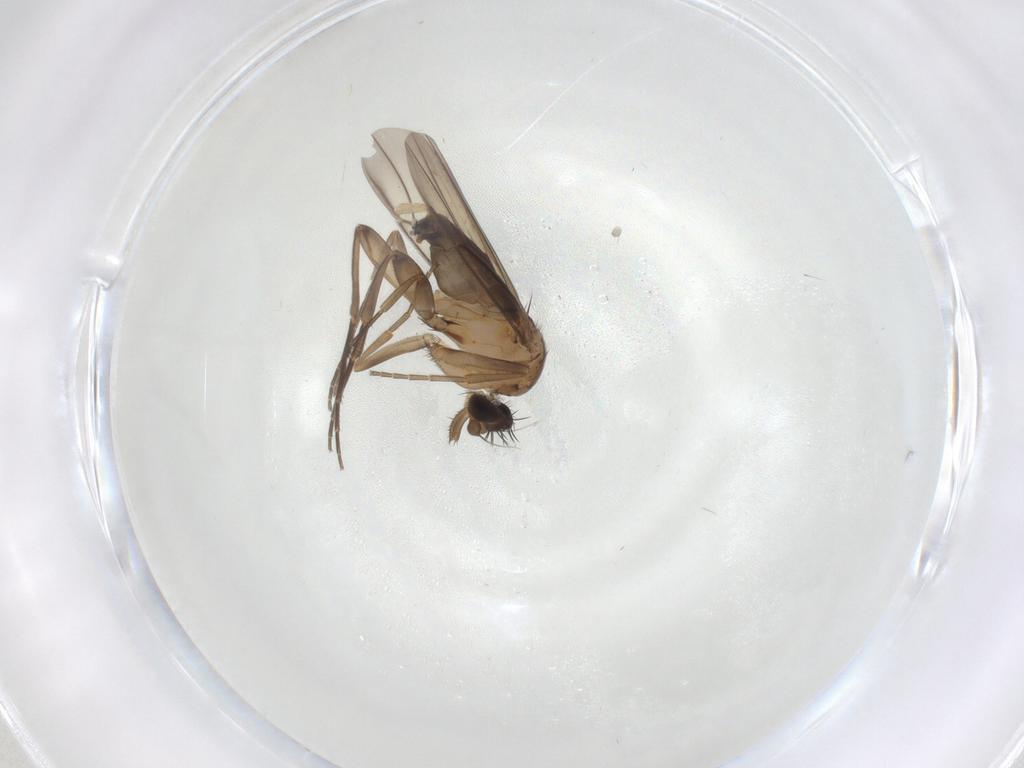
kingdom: Animalia
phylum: Arthropoda
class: Insecta
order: Diptera
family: Phoridae
